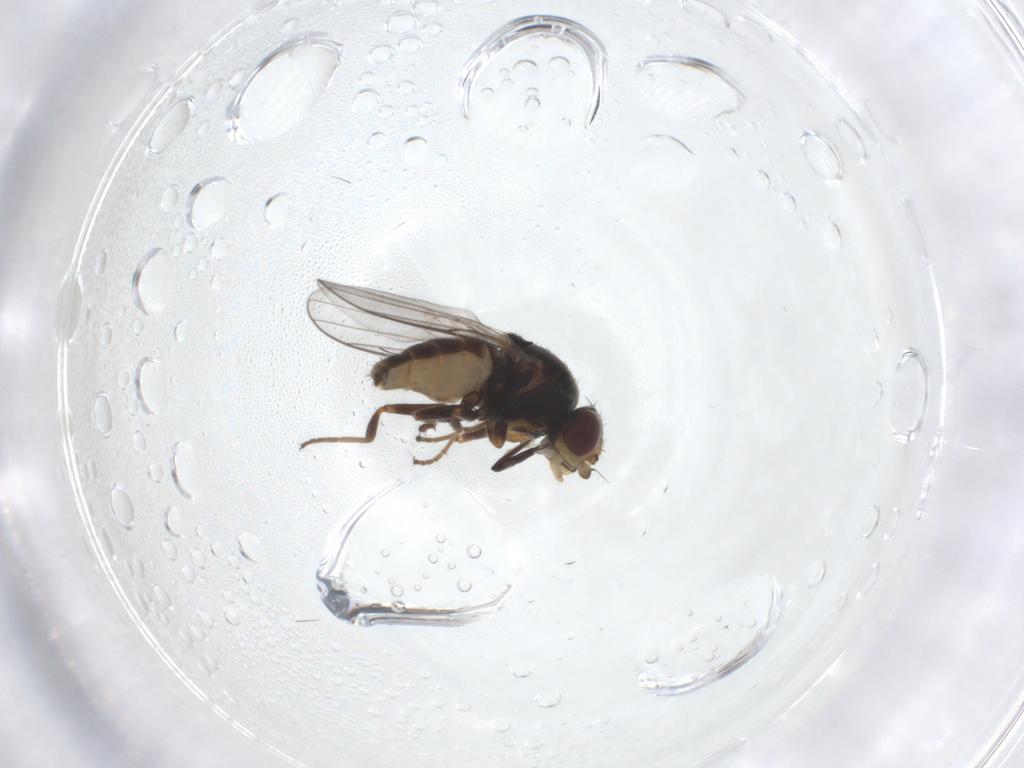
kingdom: Animalia
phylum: Arthropoda
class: Insecta
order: Diptera
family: Chloropidae
